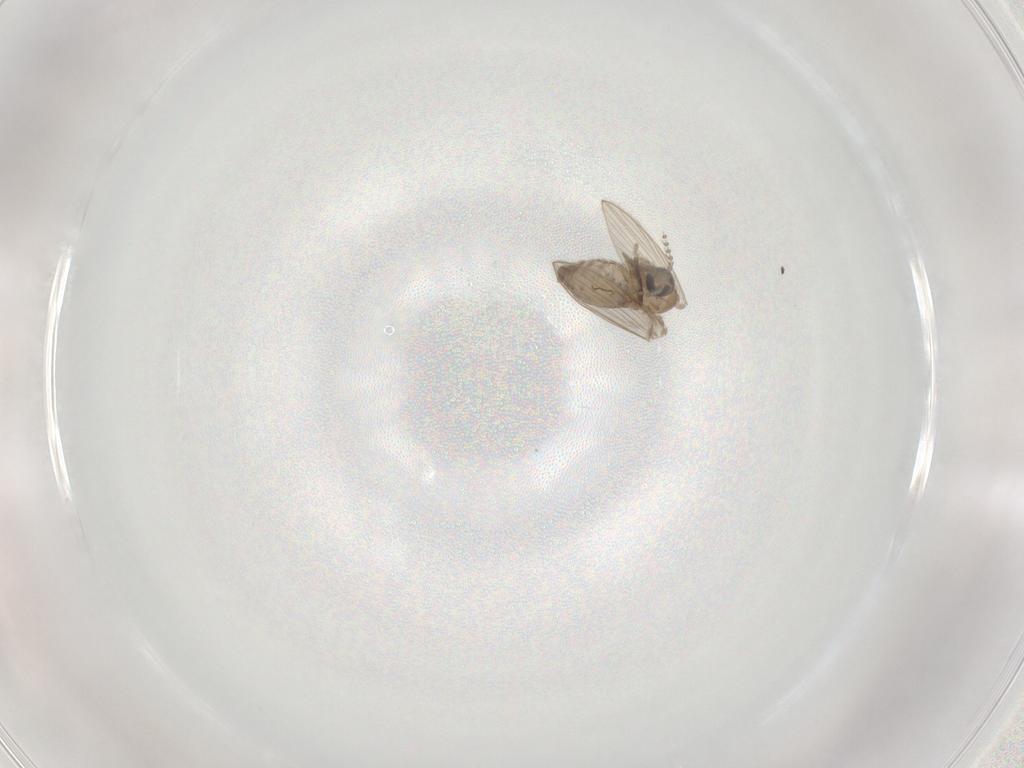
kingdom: Animalia
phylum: Arthropoda
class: Insecta
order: Diptera
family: Psychodidae
